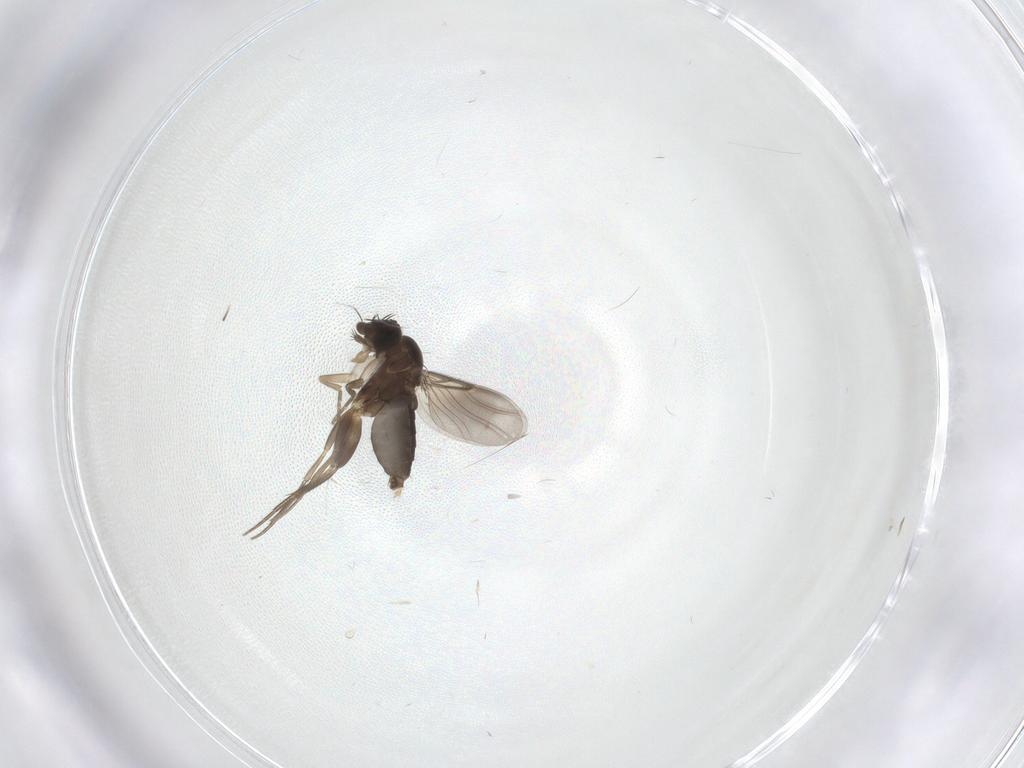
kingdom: Animalia
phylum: Arthropoda
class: Insecta
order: Diptera
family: Phoridae
